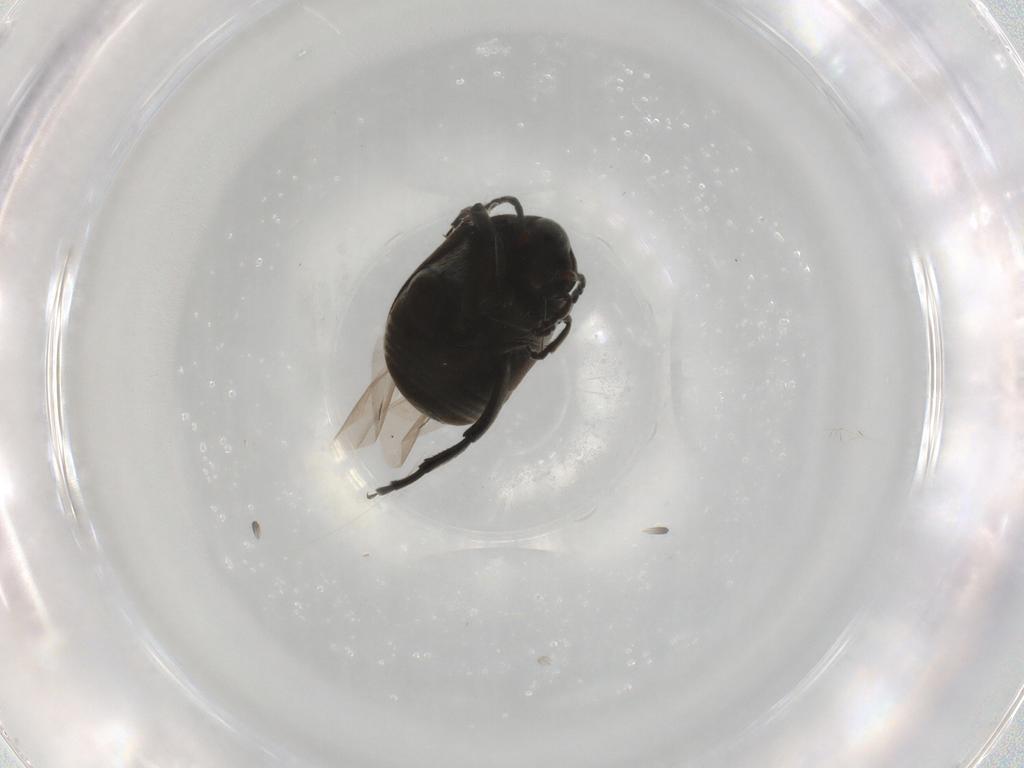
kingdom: Animalia
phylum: Arthropoda
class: Insecta
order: Coleoptera
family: Chrysomelidae
